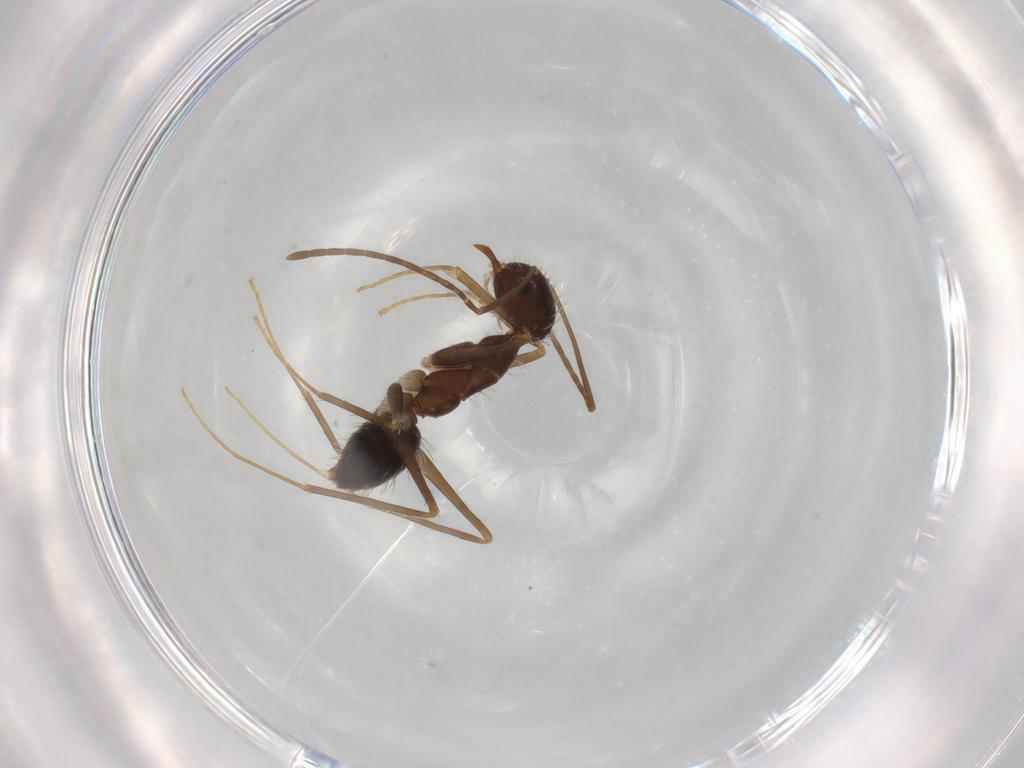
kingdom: Animalia
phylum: Arthropoda
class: Insecta
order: Hymenoptera
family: Formicidae
